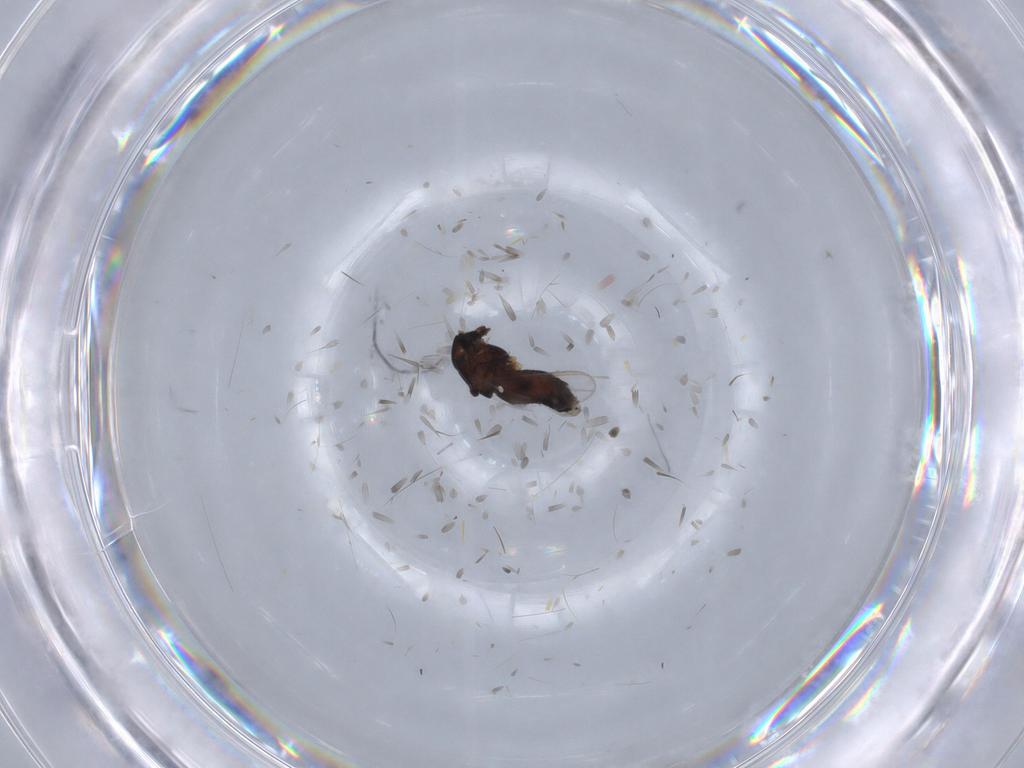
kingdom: Animalia
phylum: Arthropoda
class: Insecta
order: Diptera
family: Chironomidae
